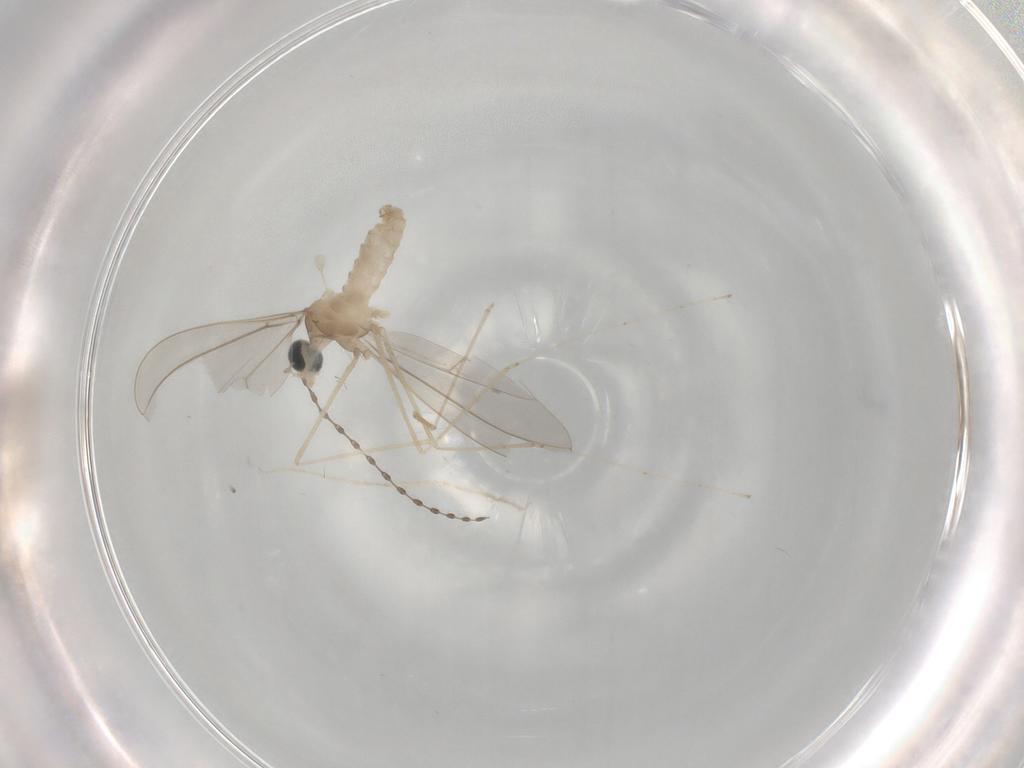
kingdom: Animalia
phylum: Arthropoda
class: Insecta
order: Diptera
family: Cecidomyiidae
